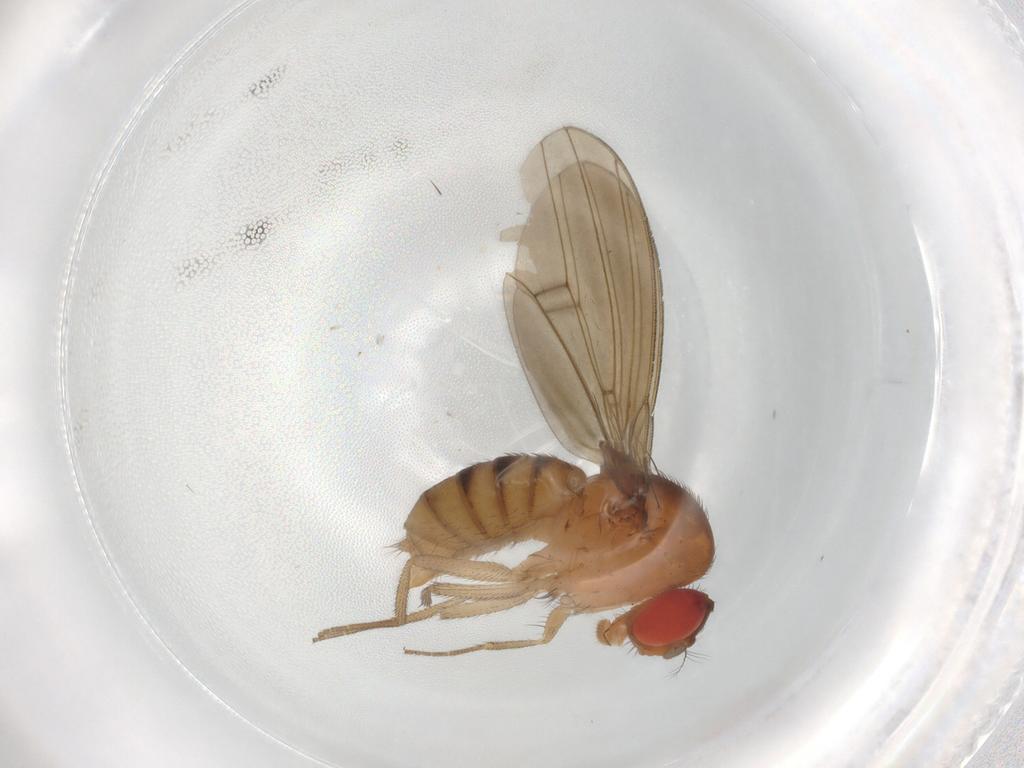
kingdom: Animalia
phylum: Arthropoda
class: Insecta
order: Diptera
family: Drosophilidae
